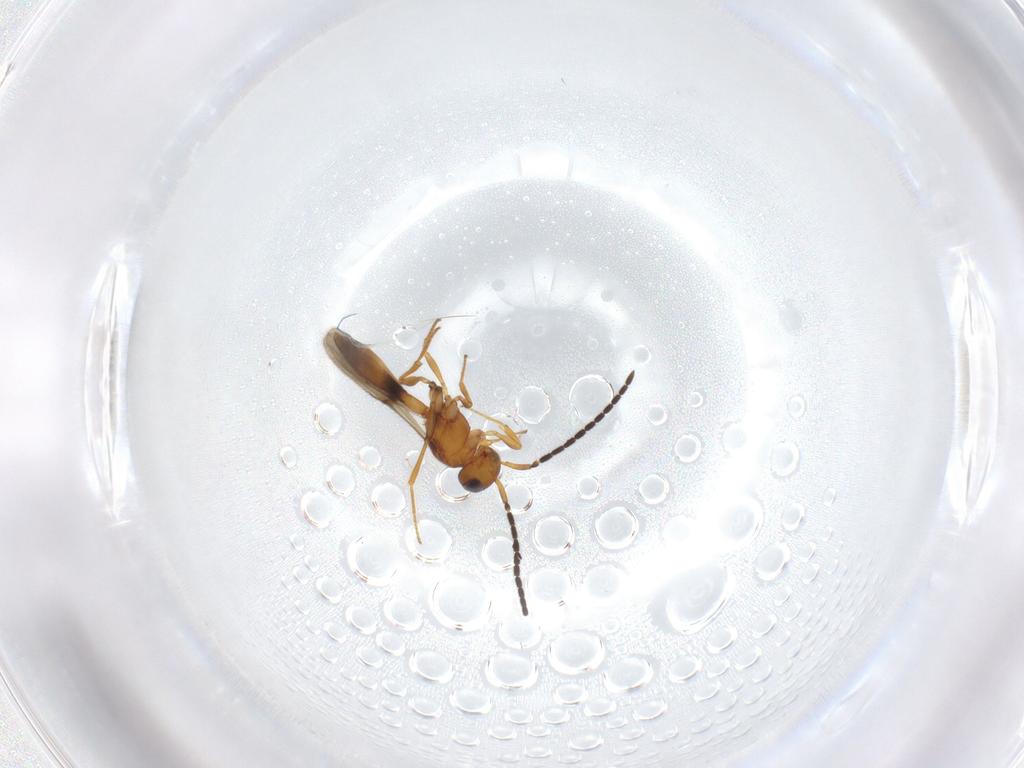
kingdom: Animalia
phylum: Arthropoda
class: Insecta
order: Hymenoptera
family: Scelionidae
